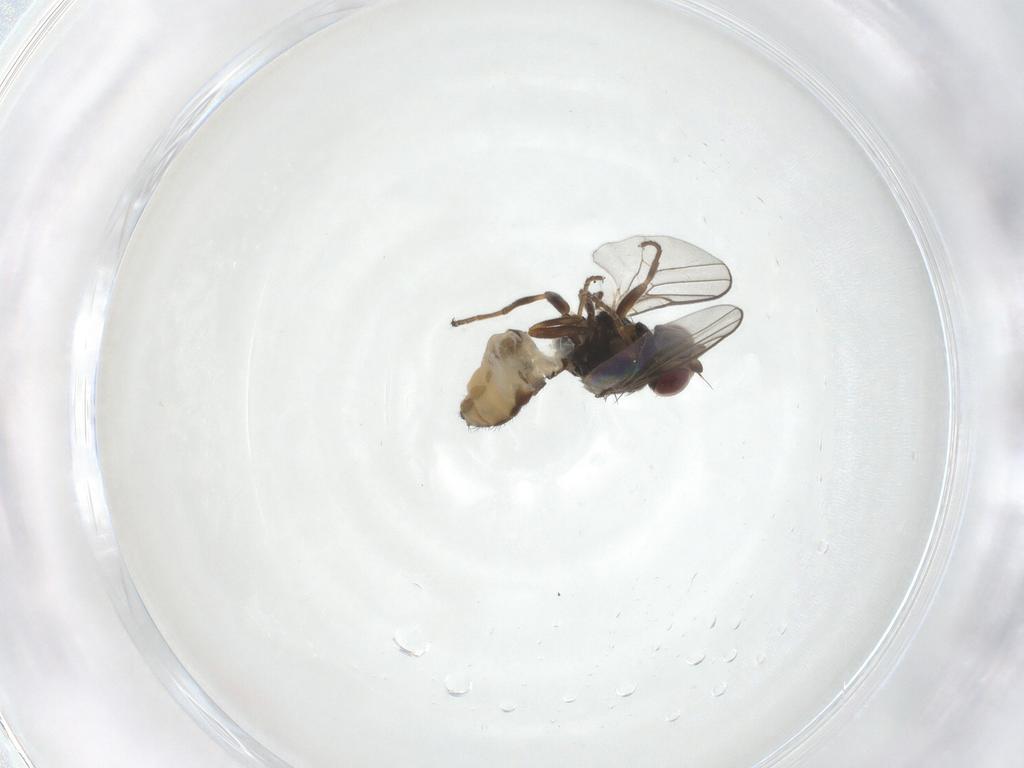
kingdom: Animalia
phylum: Arthropoda
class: Insecta
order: Diptera
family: Chloropidae
